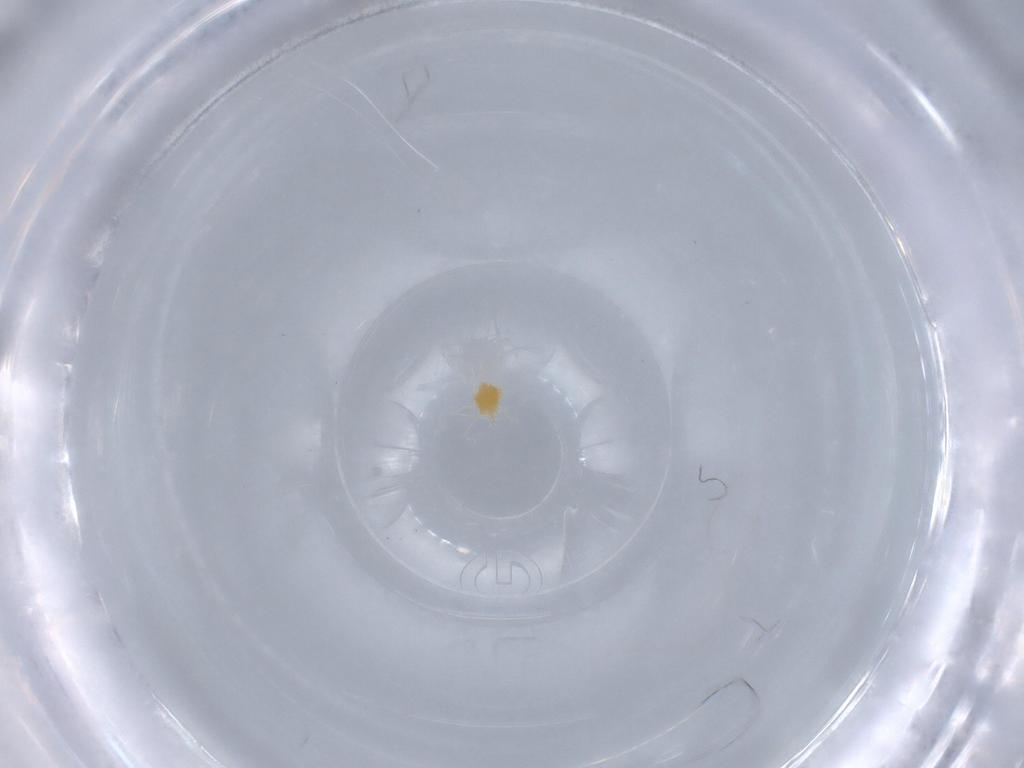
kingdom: Animalia
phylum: Arthropoda
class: Arachnida
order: Trombidiformes
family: Tetranychidae
